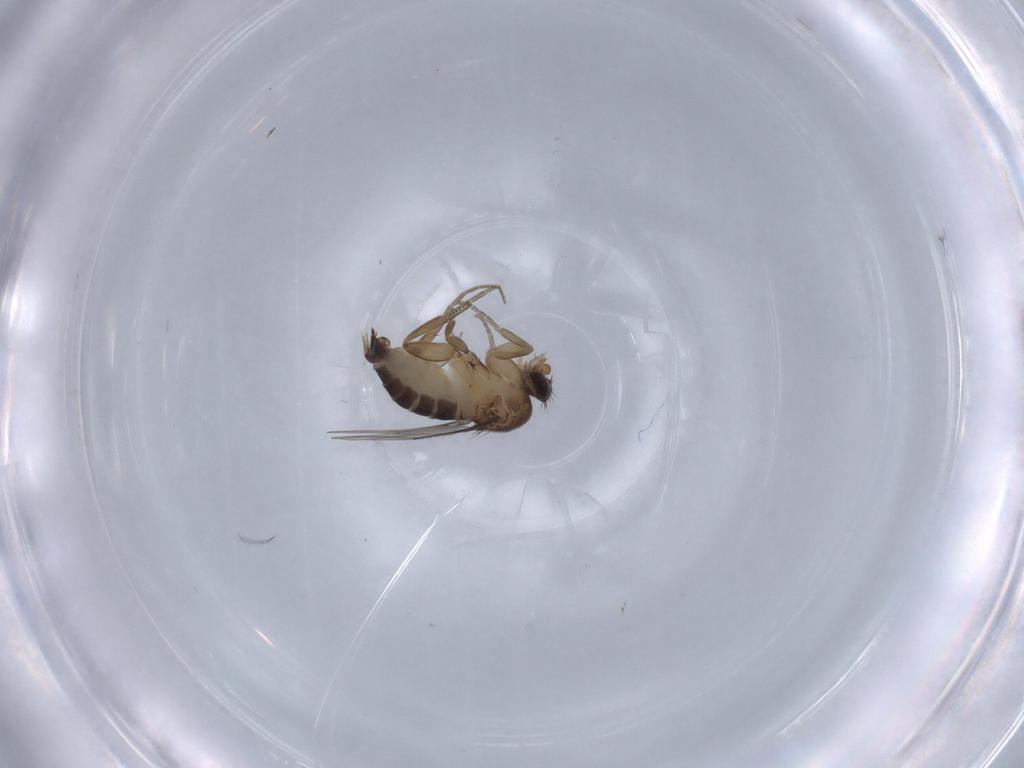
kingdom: Animalia
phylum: Arthropoda
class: Insecta
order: Diptera
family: Phoridae
